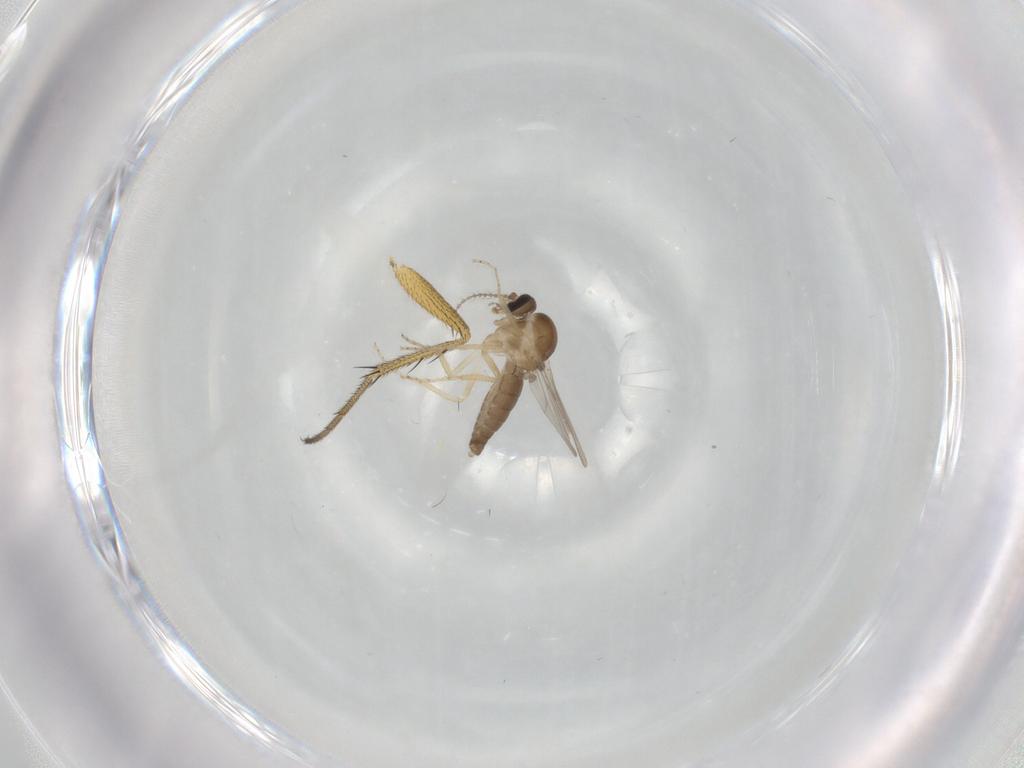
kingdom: Animalia
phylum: Arthropoda
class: Insecta
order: Diptera
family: Ceratopogonidae
